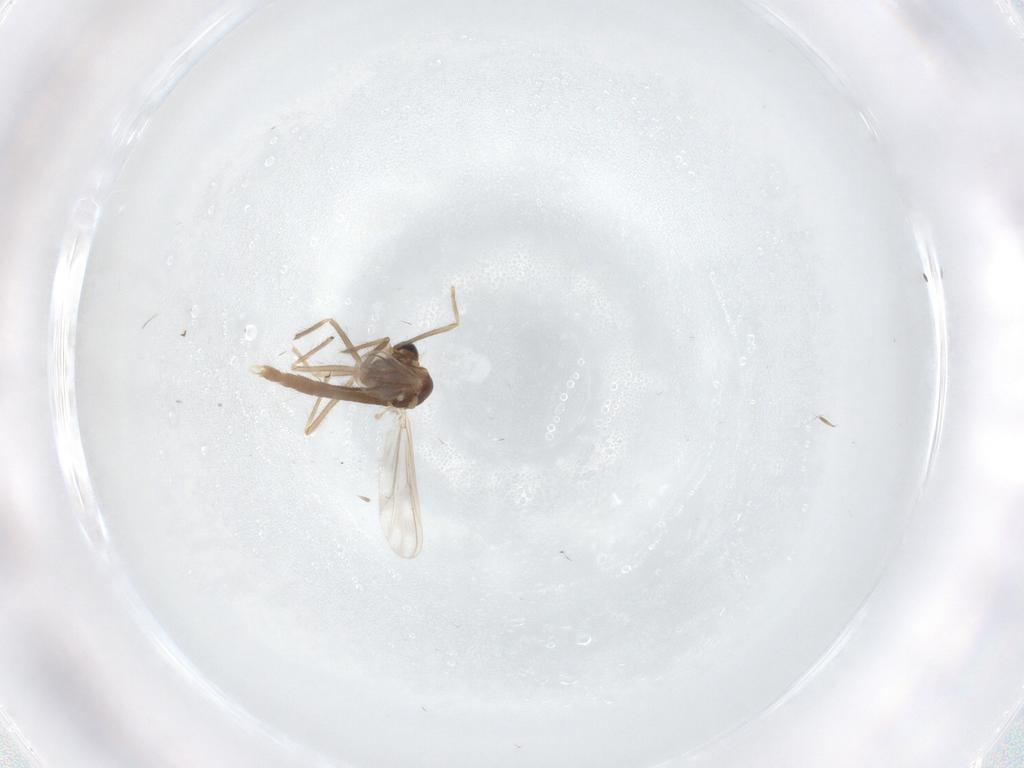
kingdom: Animalia
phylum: Arthropoda
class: Insecta
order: Diptera
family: Chironomidae
